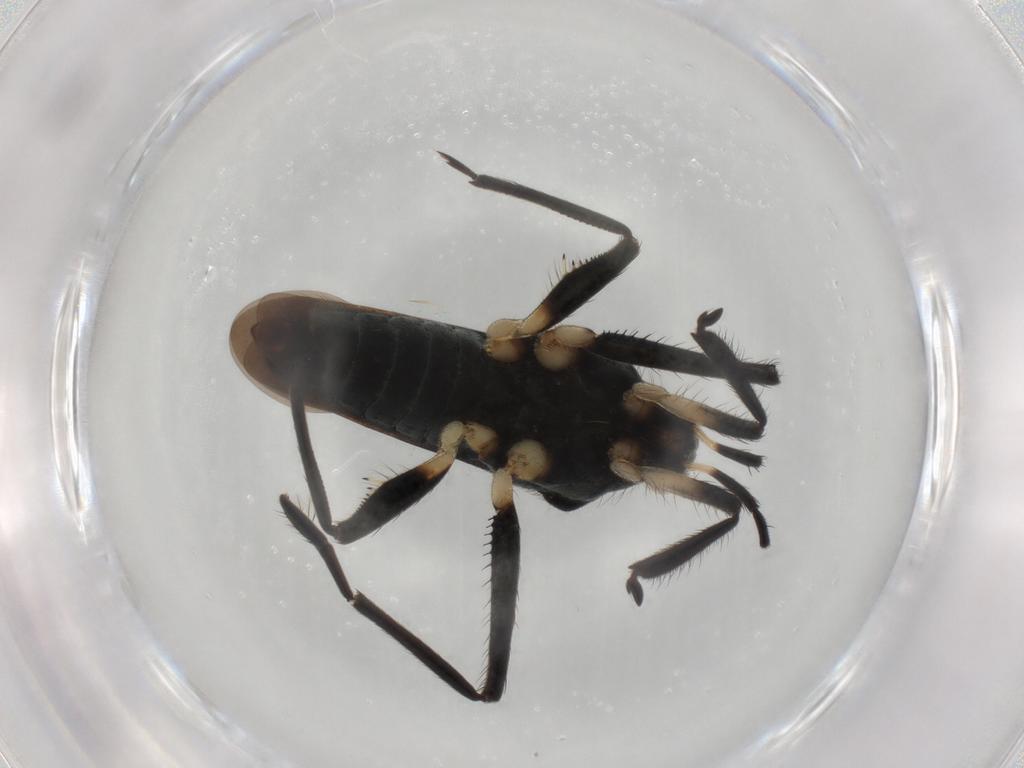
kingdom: Animalia
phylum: Arthropoda
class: Insecta
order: Hemiptera
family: Veliidae
